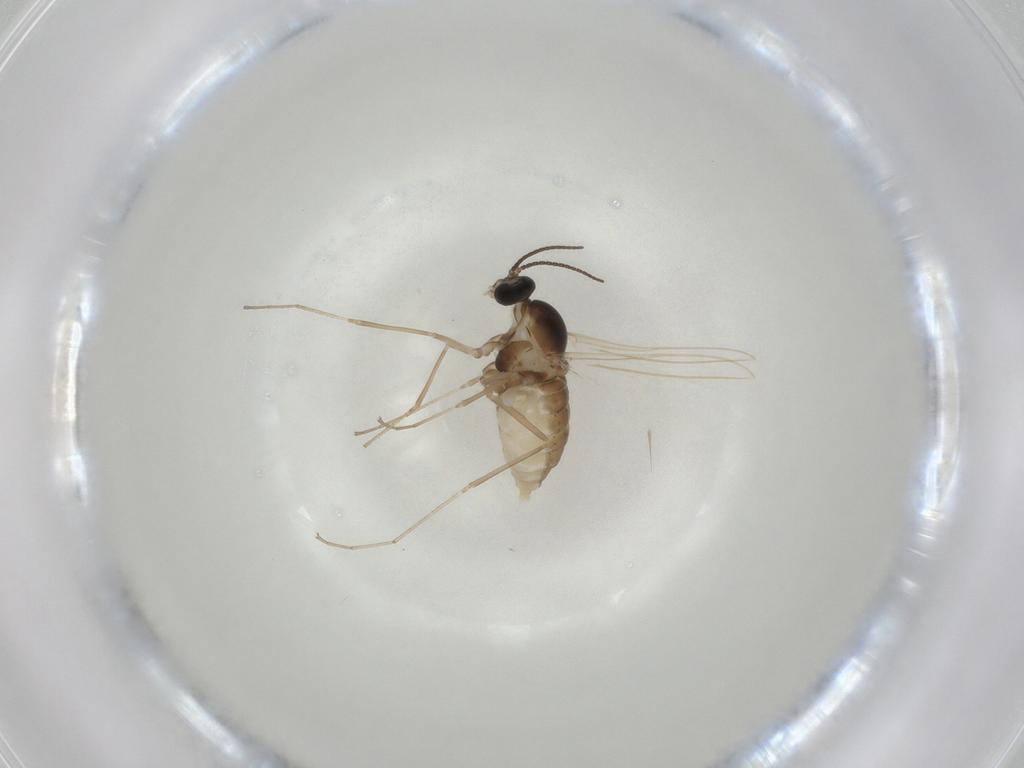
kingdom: Animalia
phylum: Arthropoda
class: Insecta
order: Diptera
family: Cecidomyiidae
